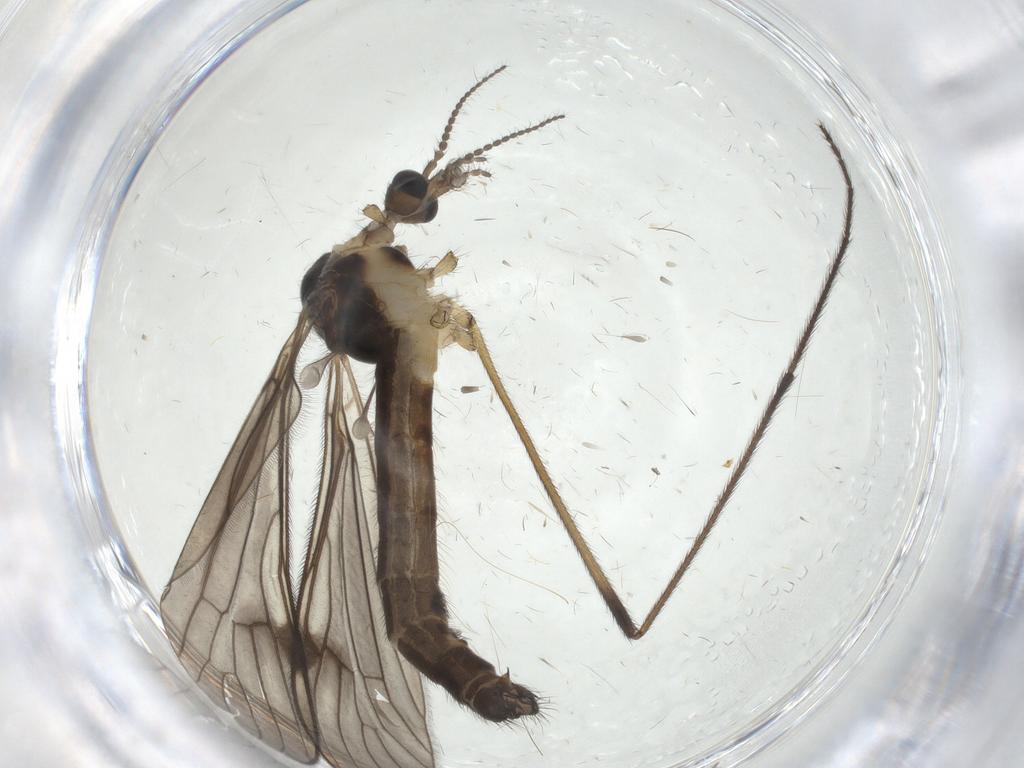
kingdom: Animalia
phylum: Arthropoda
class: Insecta
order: Diptera
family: Limoniidae
